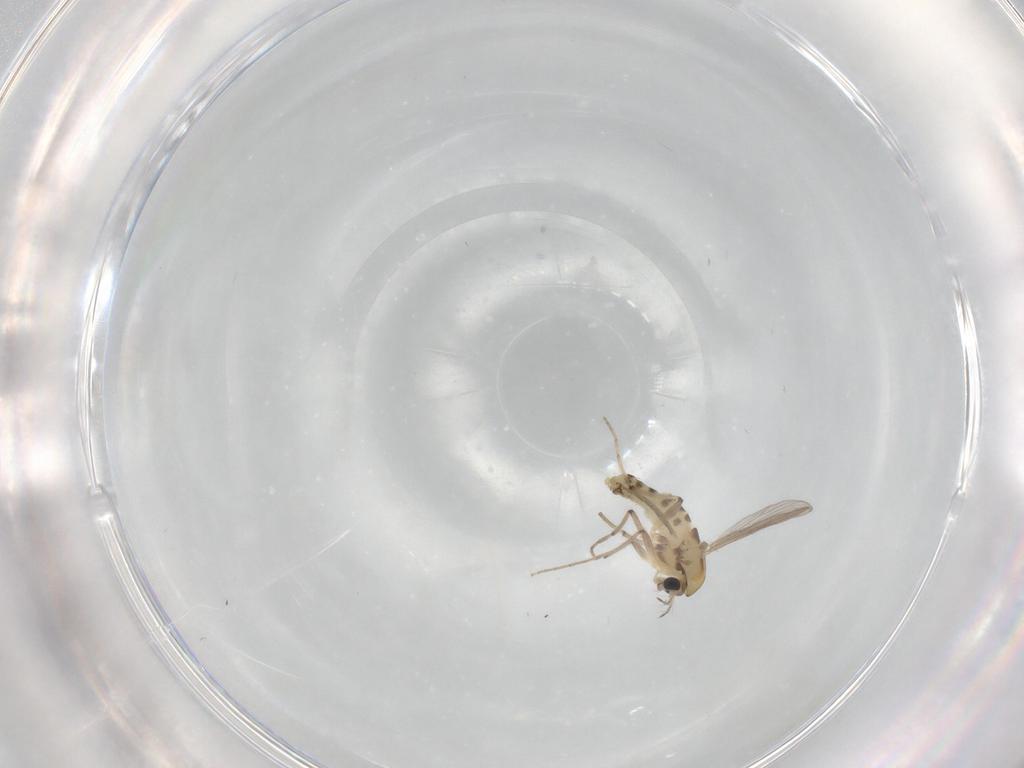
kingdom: Animalia
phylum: Arthropoda
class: Insecta
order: Diptera
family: Chironomidae
